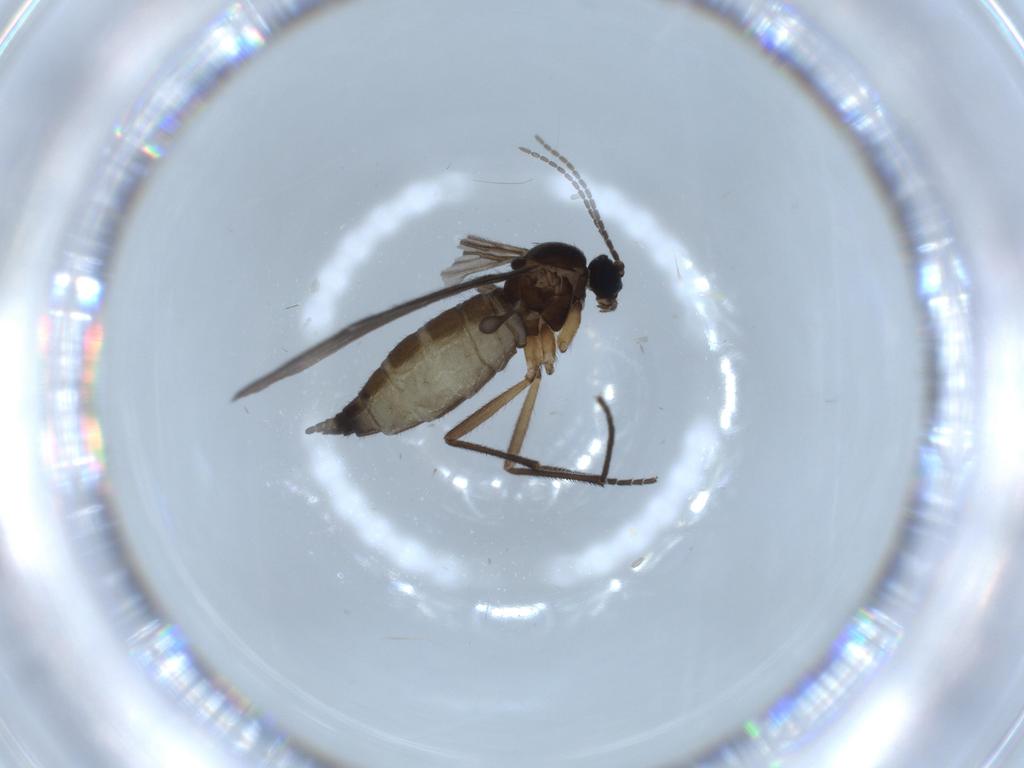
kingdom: Animalia
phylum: Arthropoda
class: Insecta
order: Diptera
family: Sciaridae
